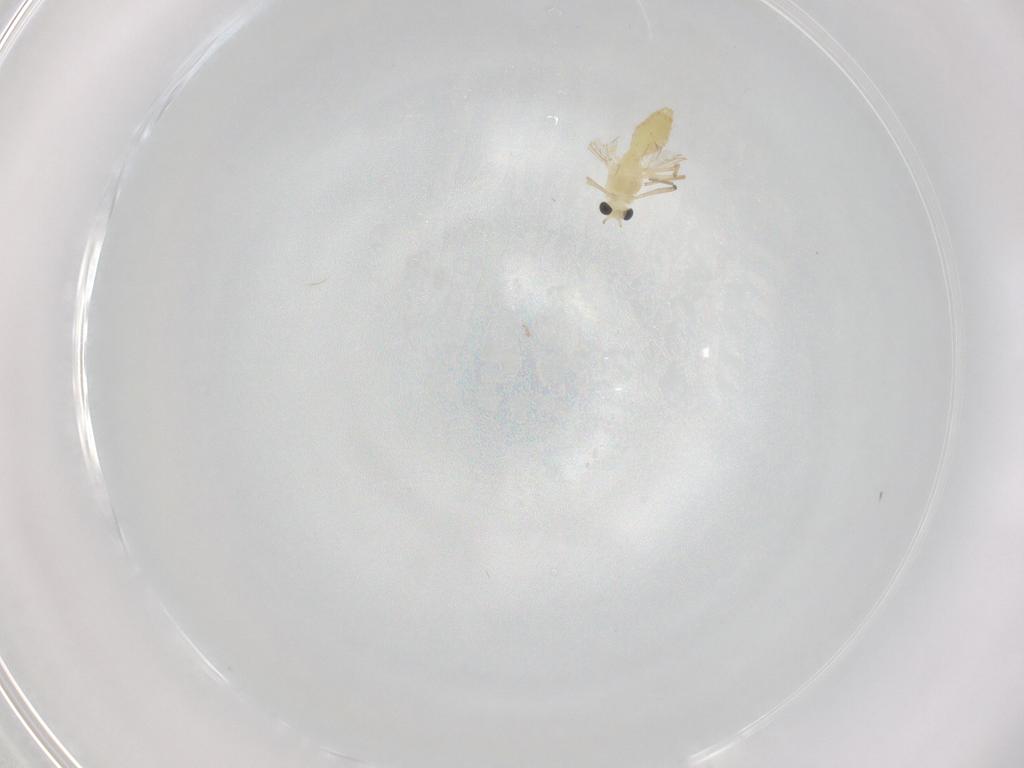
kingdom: Animalia
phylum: Arthropoda
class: Insecta
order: Diptera
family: Chironomidae
